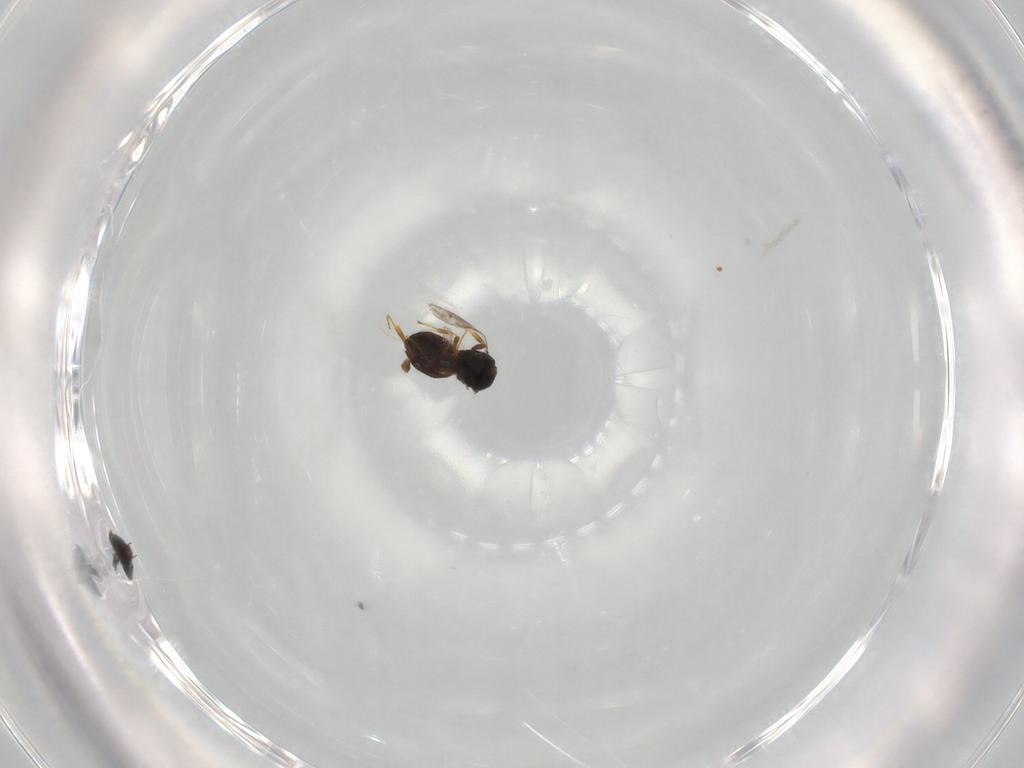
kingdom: Animalia
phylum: Arthropoda
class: Insecta
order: Hymenoptera
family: Scelionidae
